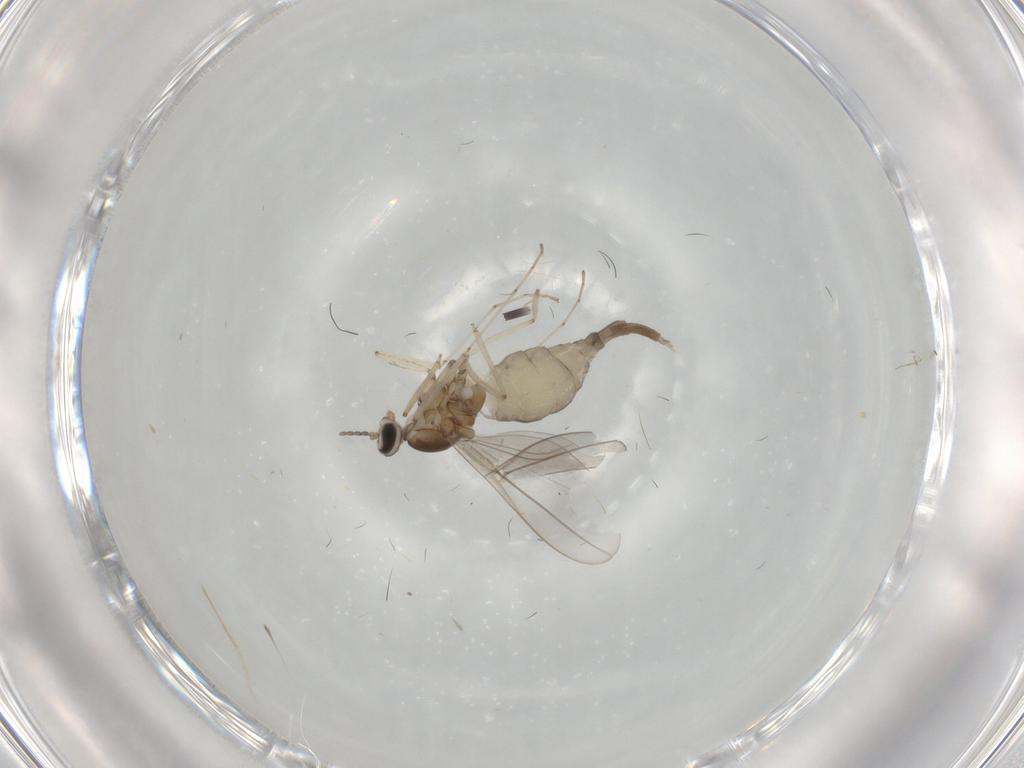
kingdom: Animalia
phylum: Arthropoda
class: Insecta
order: Diptera
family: Cecidomyiidae
